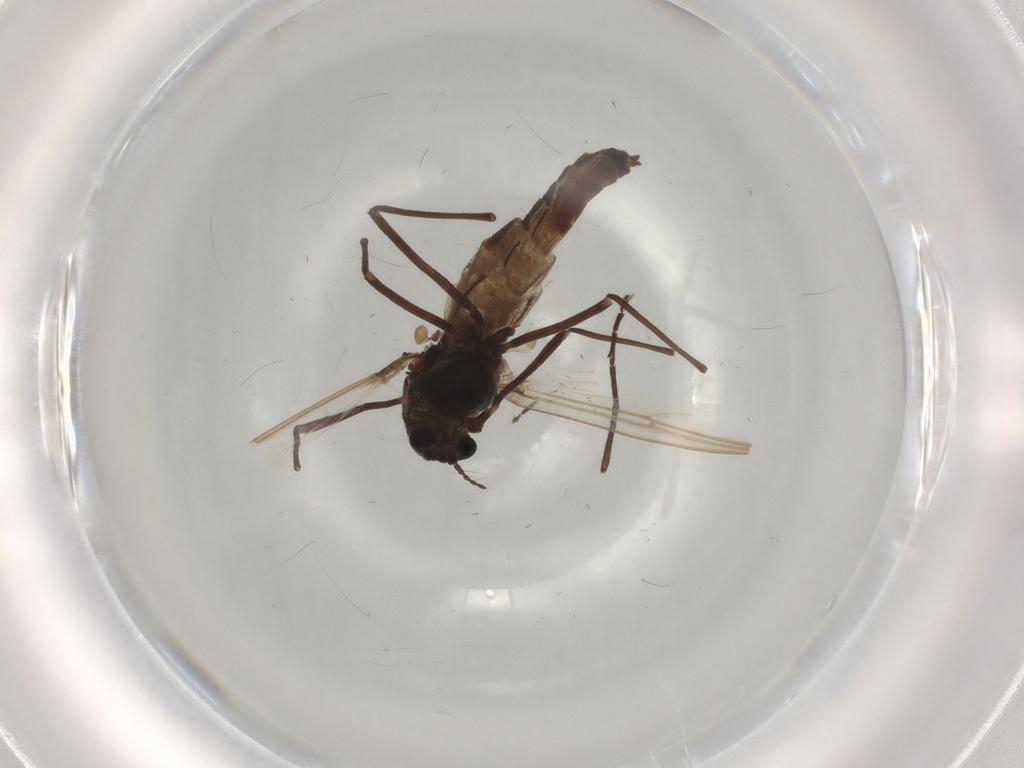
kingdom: Animalia
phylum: Arthropoda
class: Insecta
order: Diptera
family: Chironomidae
